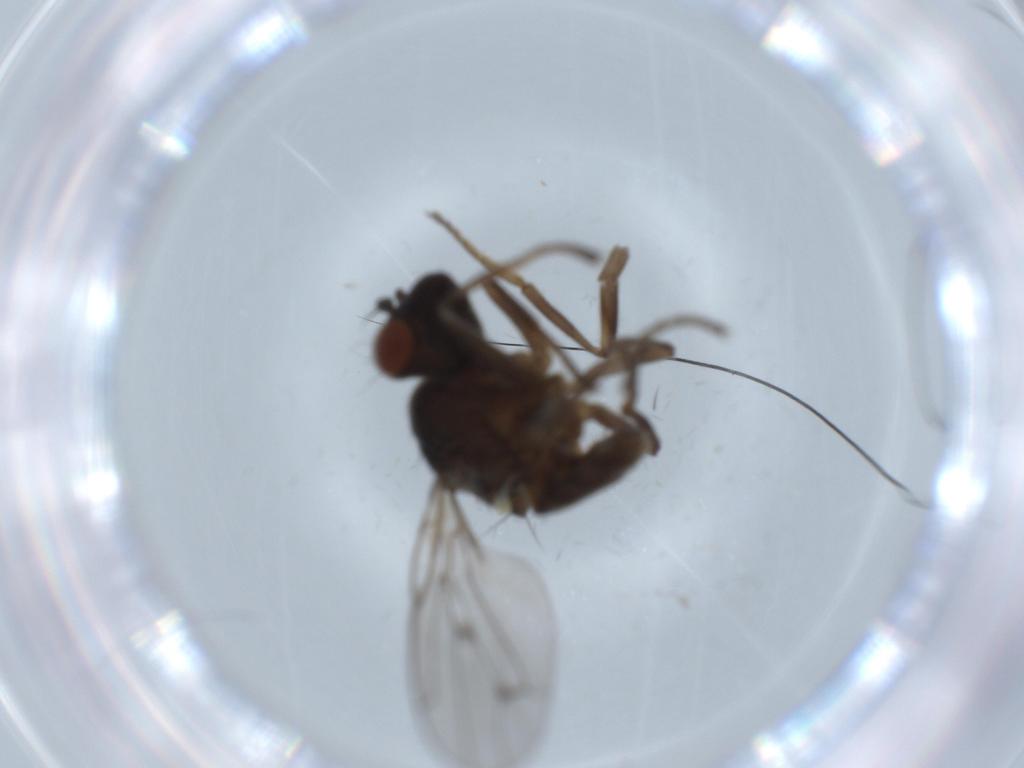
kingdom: Animalia
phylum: Arthropoda
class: Insecta
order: Diptera
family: Ephydridae
